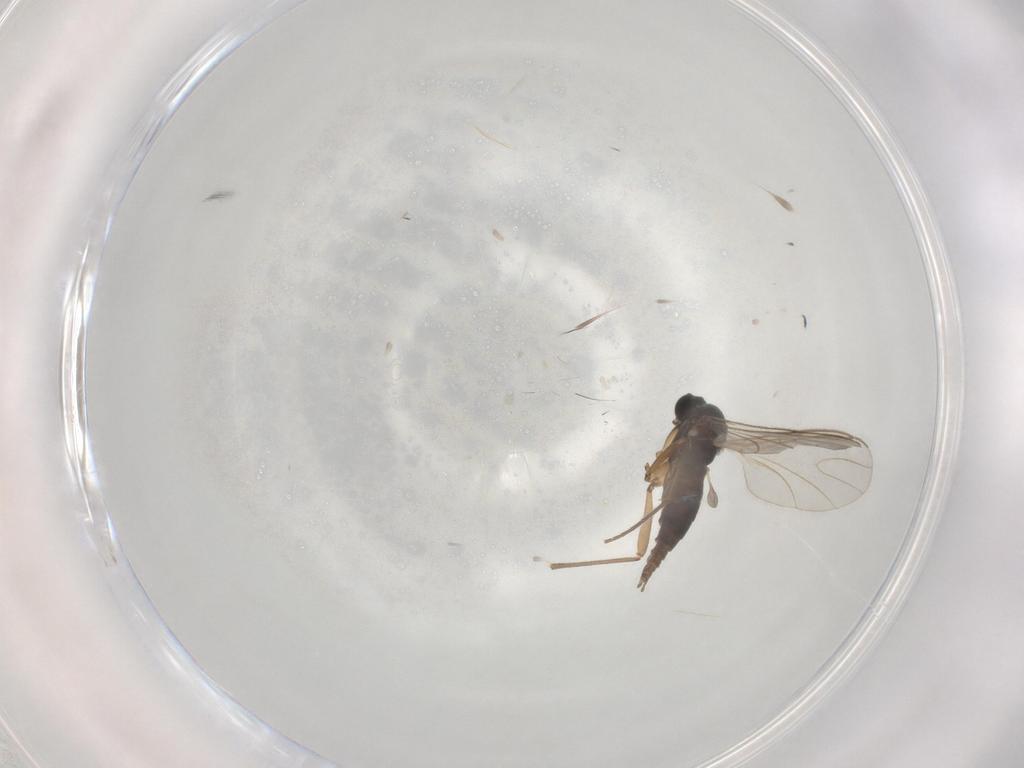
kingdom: Animalia
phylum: Arthropoda
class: Insecta
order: Diptera
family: Sciaridae
